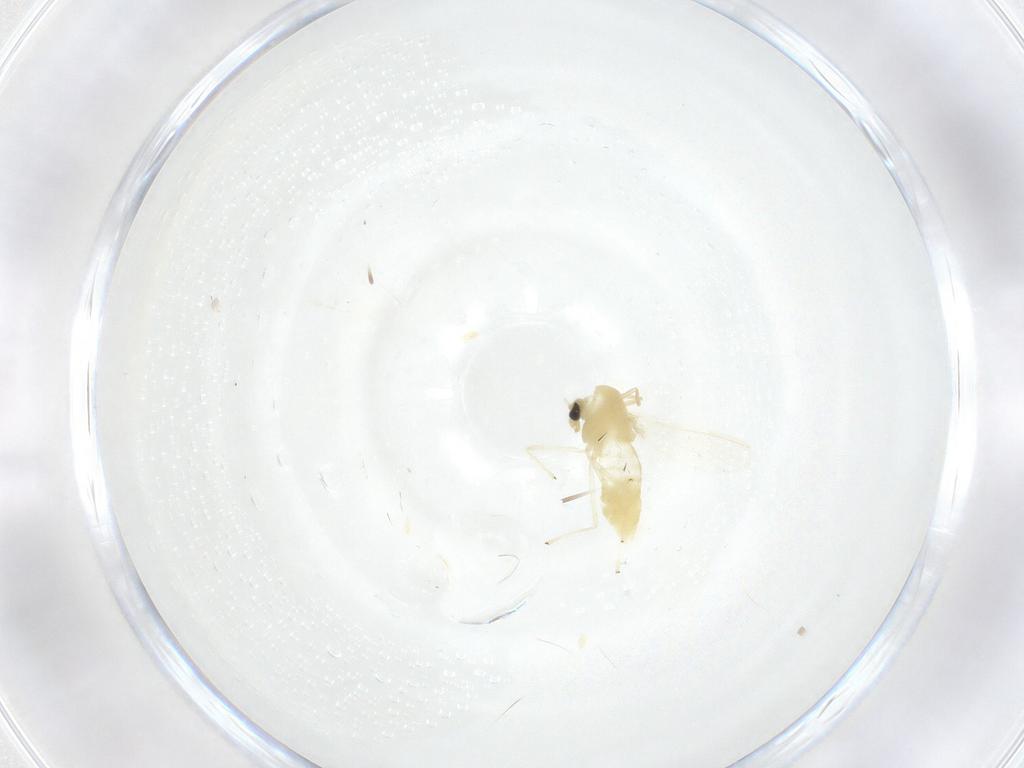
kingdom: Animalia
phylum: Arthropoda
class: Insecta
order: Diptera
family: Chironomidae
